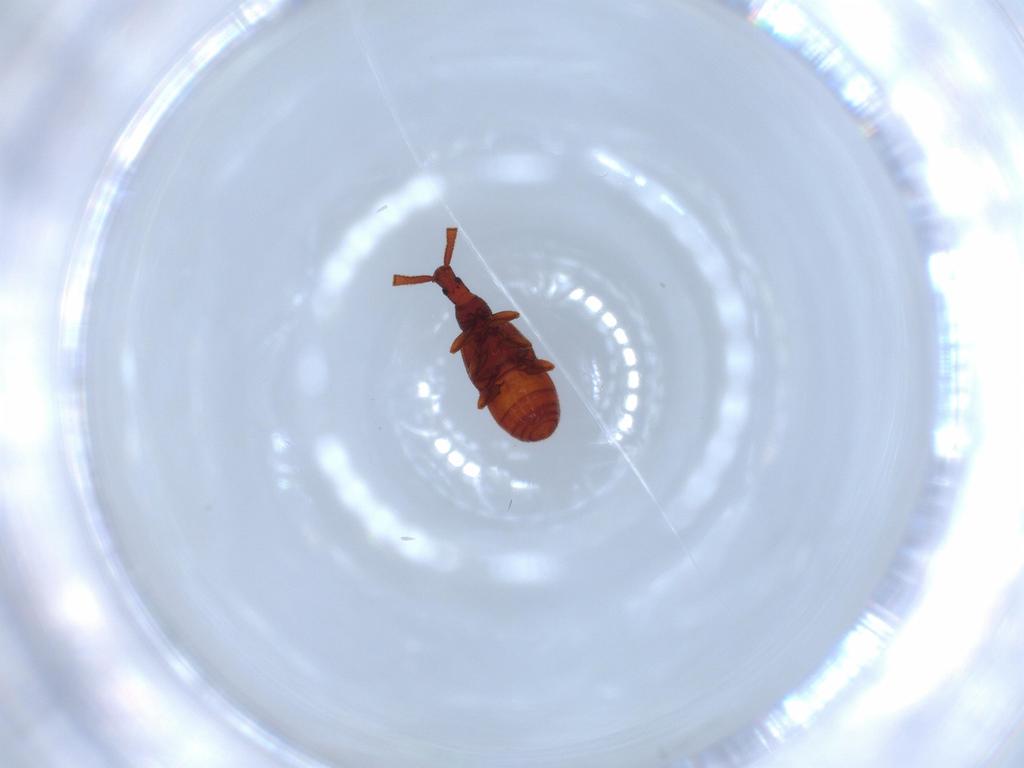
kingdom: Animalia
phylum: Arthropoda
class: Insecta
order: Coleoptera
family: Staphylinidae
